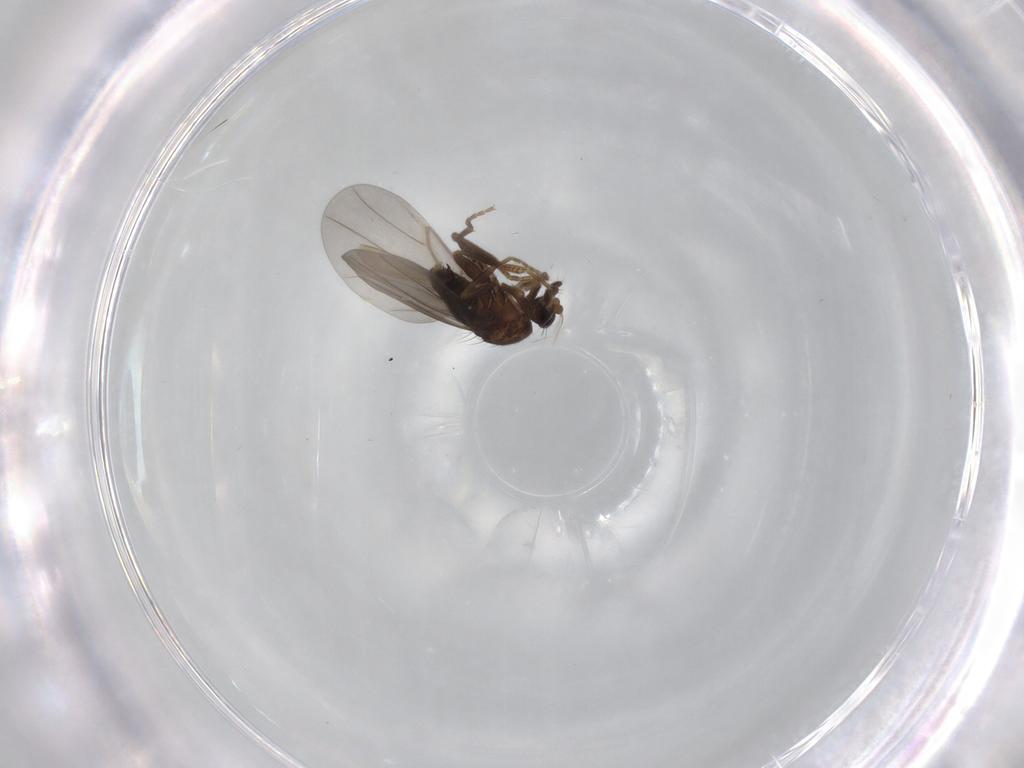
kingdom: Animalia
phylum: Arthropoda
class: Insecta
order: Diptera
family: Phoridae
